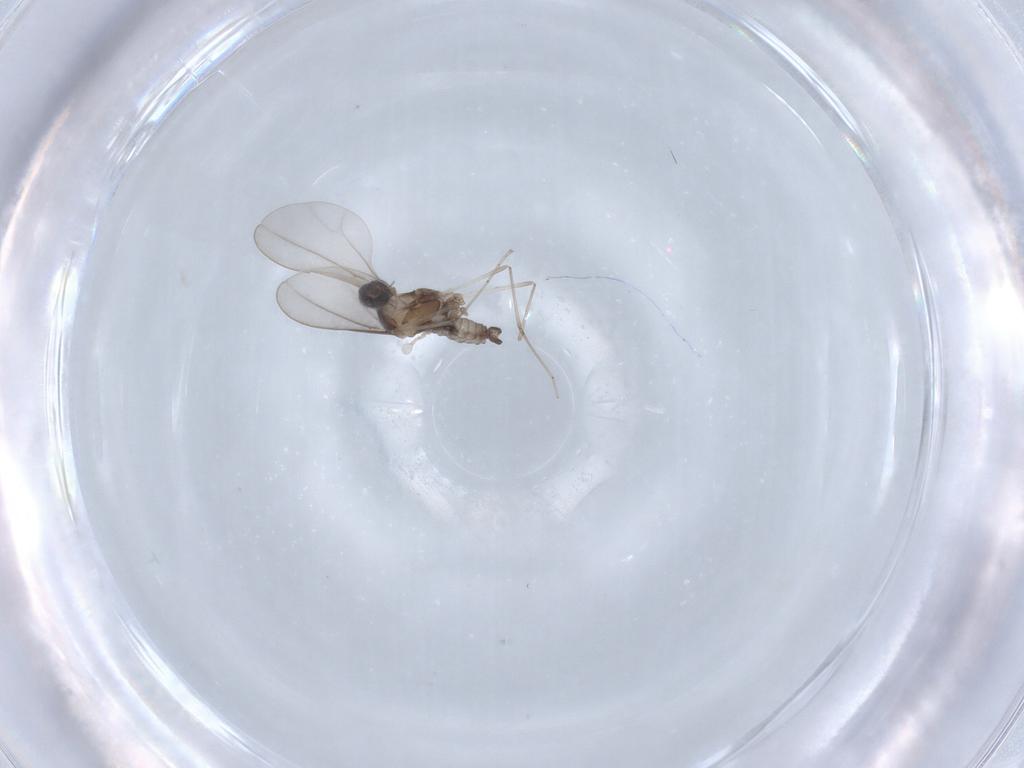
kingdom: Animalia
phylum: Arthropoda
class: Insecta
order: Diptera
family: Cecidomyiidae
